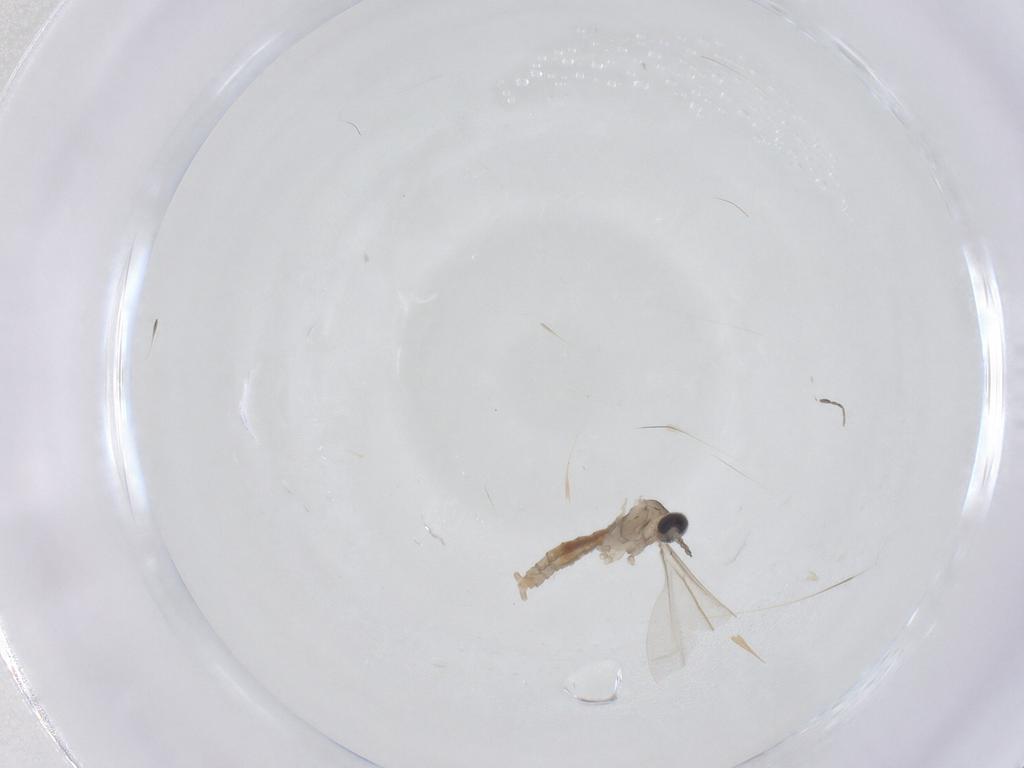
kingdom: Animalia
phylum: Arthropoda
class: Insecta
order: Diptera
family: Cecidomyiidae
